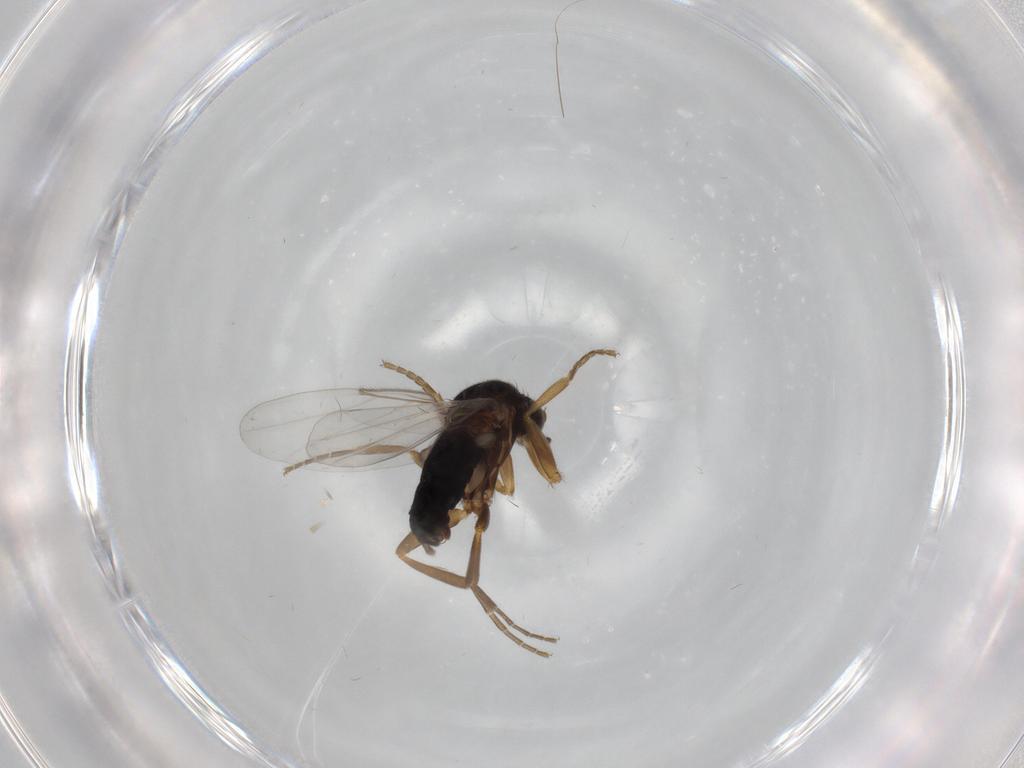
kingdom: Animalia
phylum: Arthropoda
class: Insecta
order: Diptera
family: Phoridae
